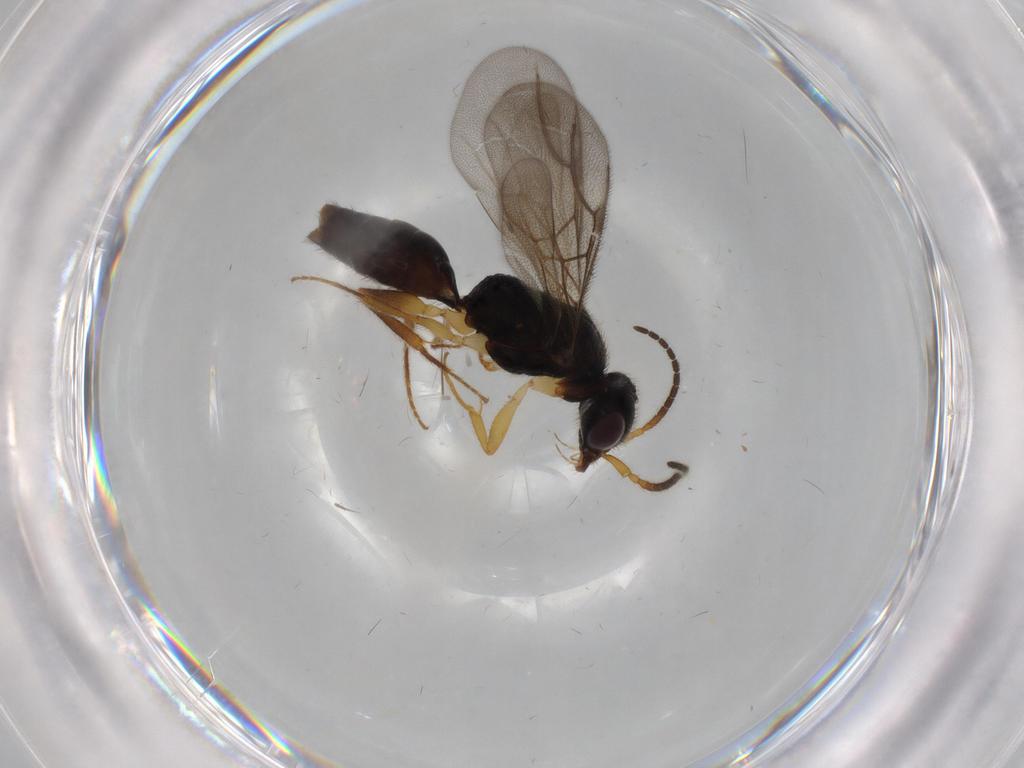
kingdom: Animalia
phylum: Arthropoda
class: Insecta
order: Hymenoptera
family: Bethylidae
